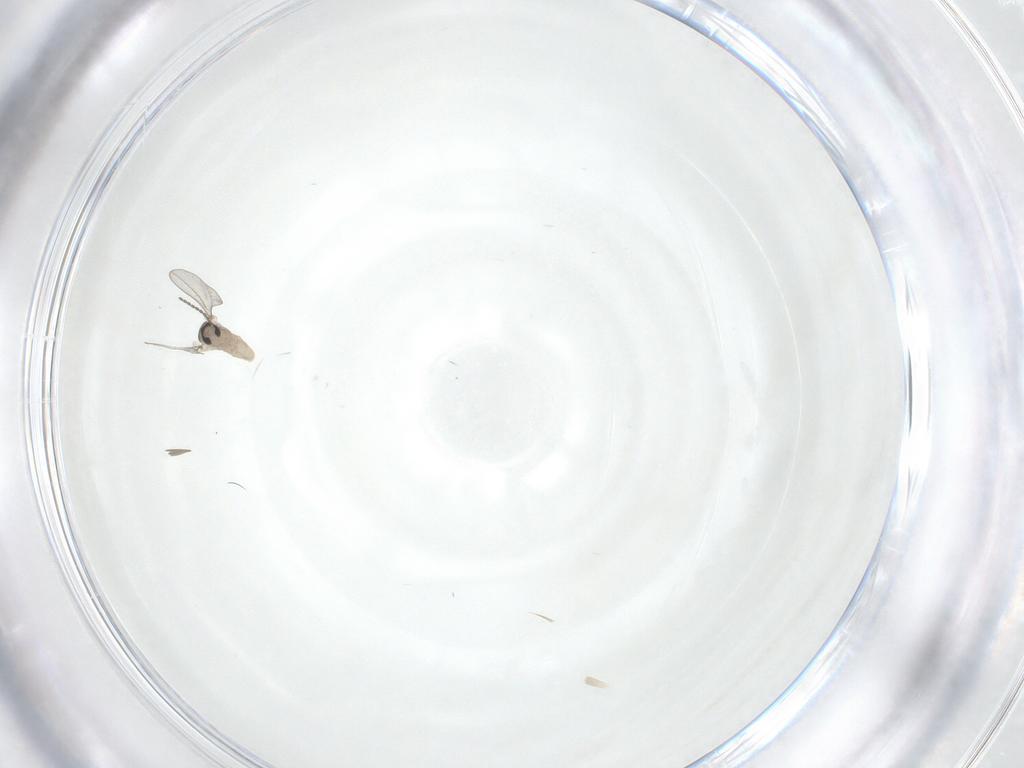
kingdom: Animalia
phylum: Arthropoda
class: Insecta
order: Diptera
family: Cecidomyiidae
